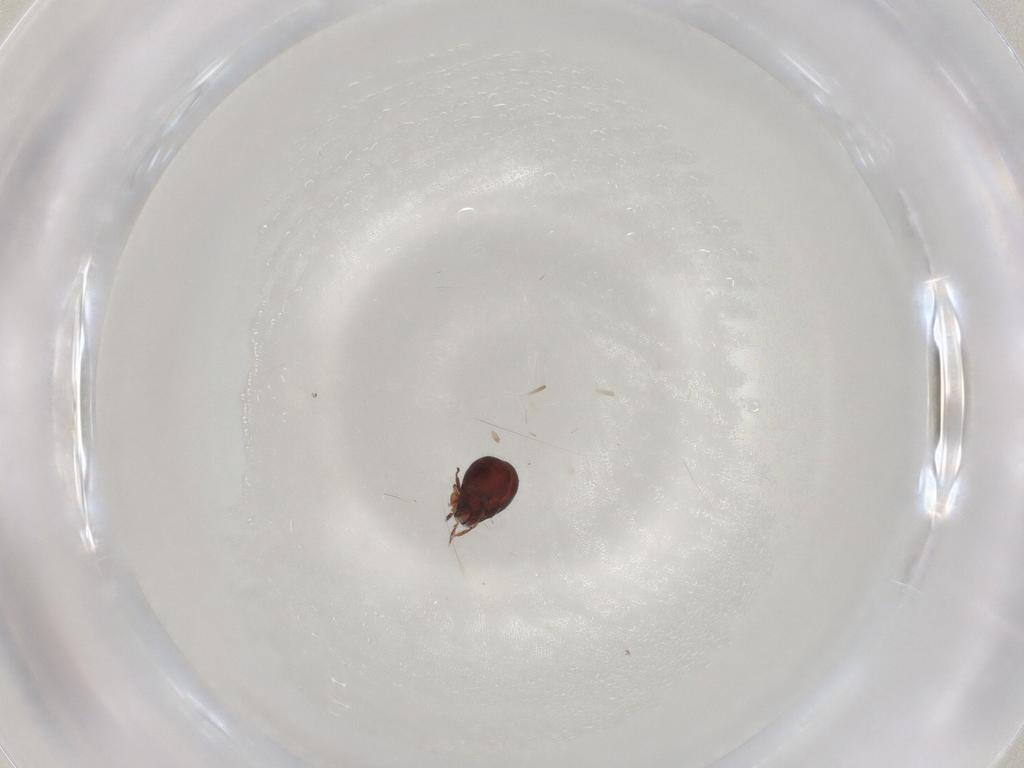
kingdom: Animalia
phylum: Arthropoda
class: Arachnida
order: Sarcoptiformes
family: Humerobatidae
